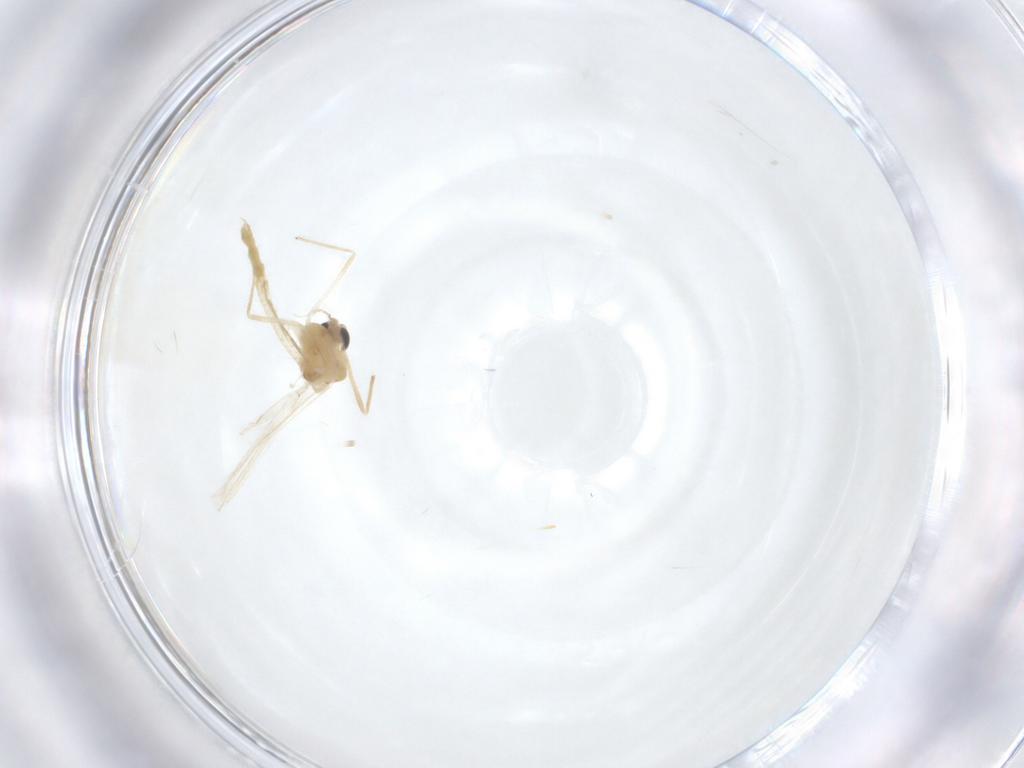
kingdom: Animalia
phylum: Arthropoda
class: Insecta
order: Diptera
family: Chironomidae
